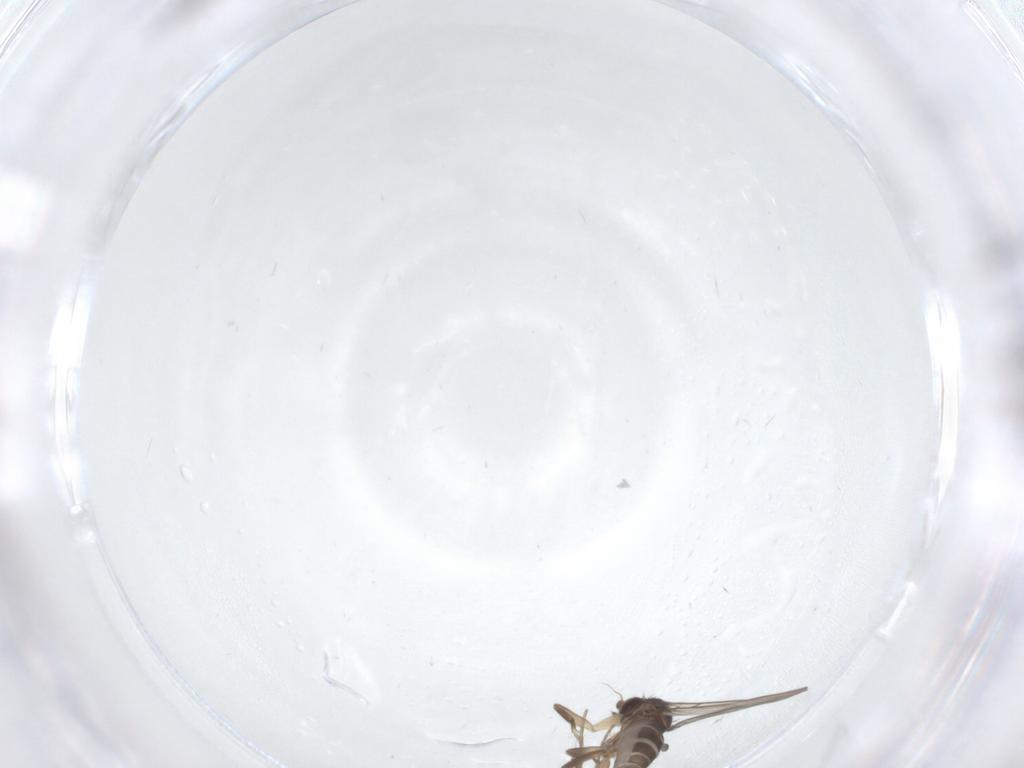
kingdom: Animalia
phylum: Arthropoda
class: Insecta
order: Diptera
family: Phoridae
